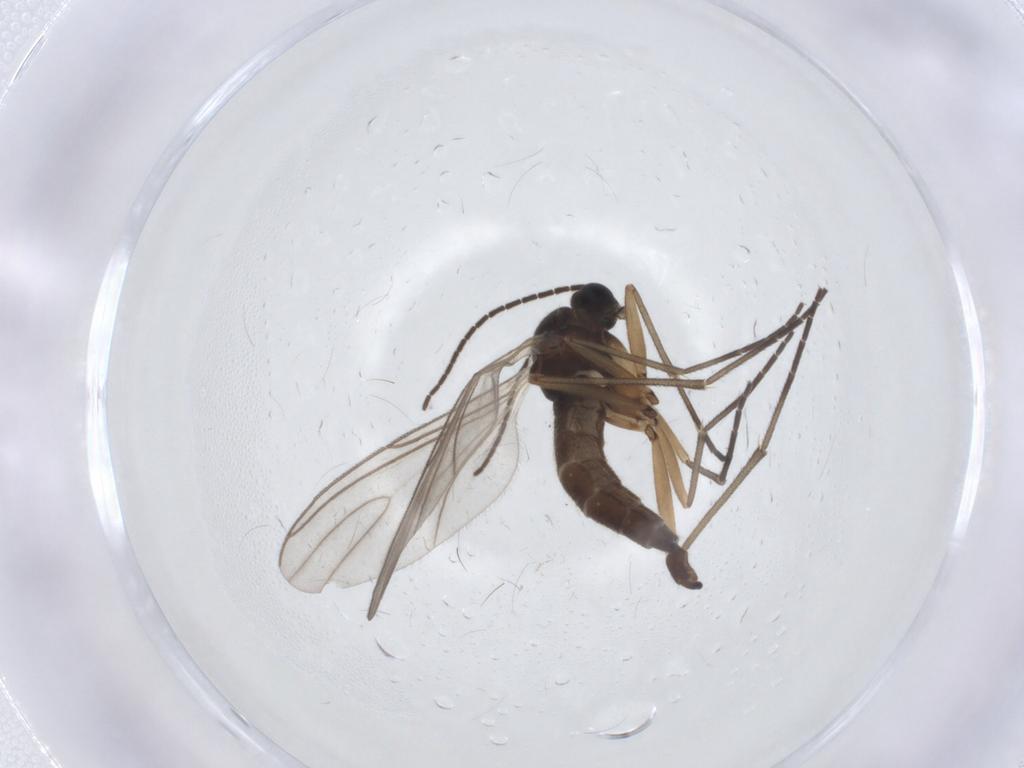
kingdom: Animalia
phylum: Arthropoda
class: Insecta
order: Diptera
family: Sciaridae
